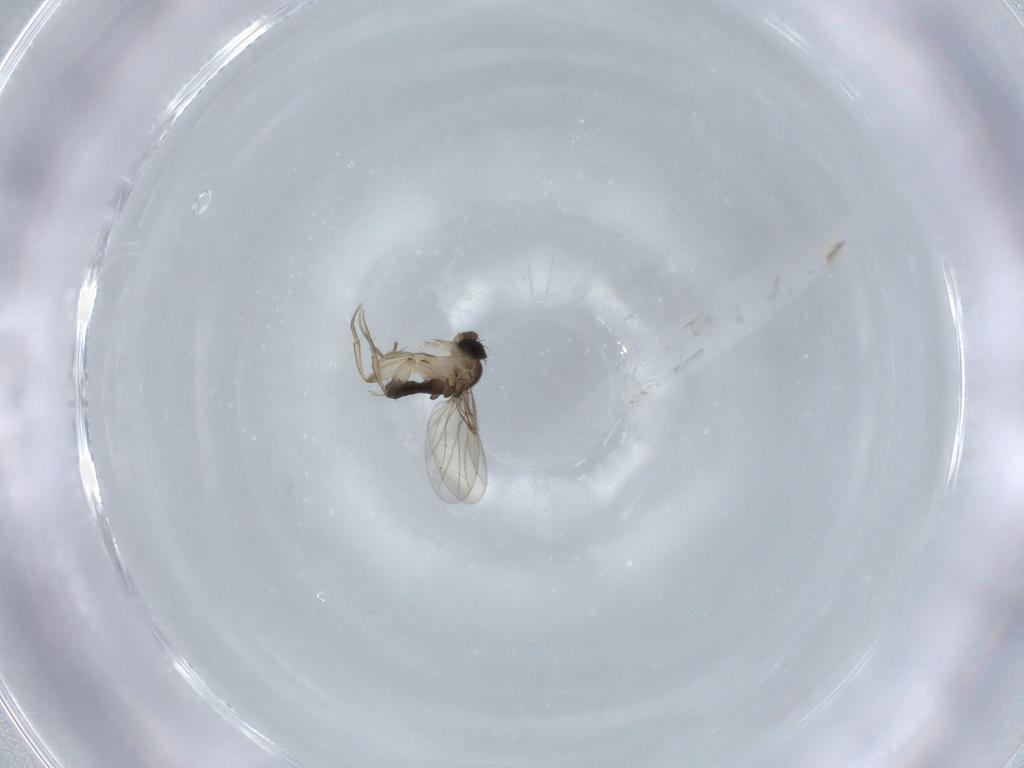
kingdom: Animalia
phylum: Arthropoda
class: Insecta
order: Diptera
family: Phoridae
